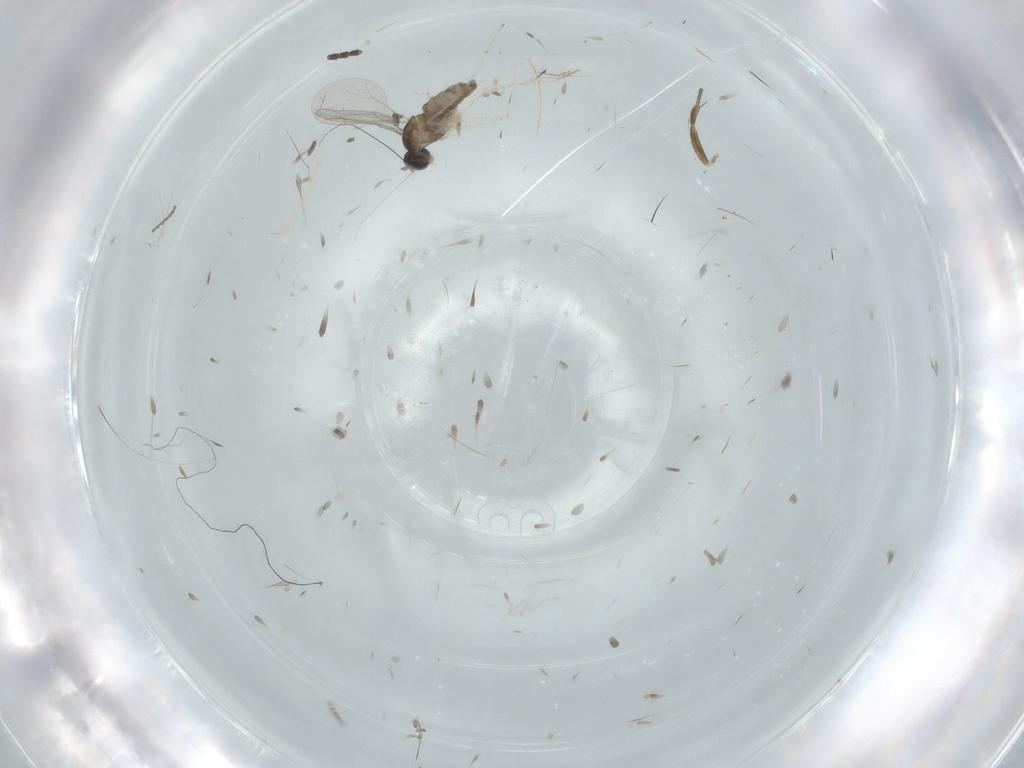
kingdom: Animalia
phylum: Arthropoda
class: Insecta
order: Diptera
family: Cecidomyiidae
